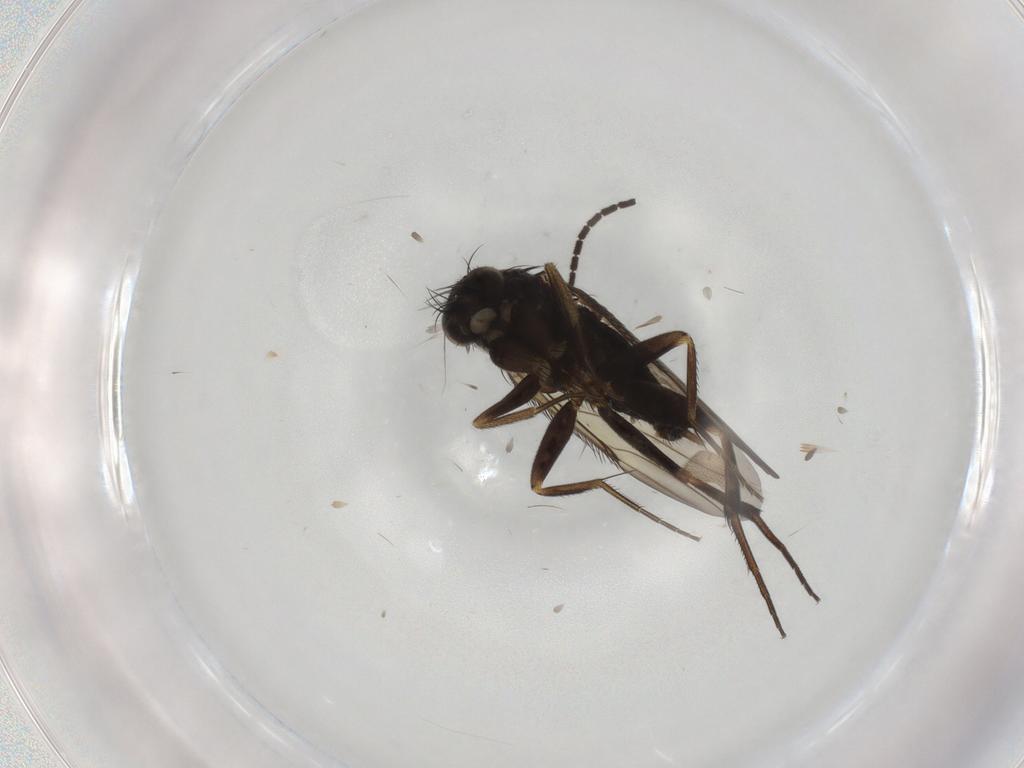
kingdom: Animalia
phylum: Arthropoda
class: Insecta
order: Diptera
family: Phoridae
